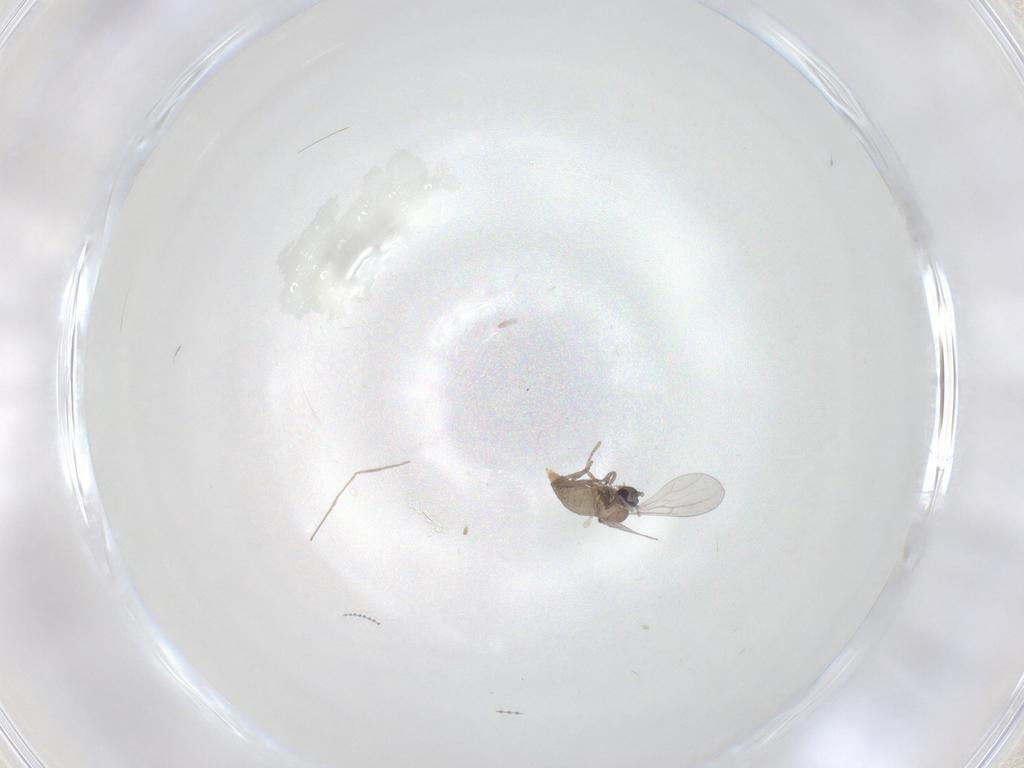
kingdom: Animalia
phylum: Arthropoda
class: Insecta
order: Diptera
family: Cecidomyiidae
